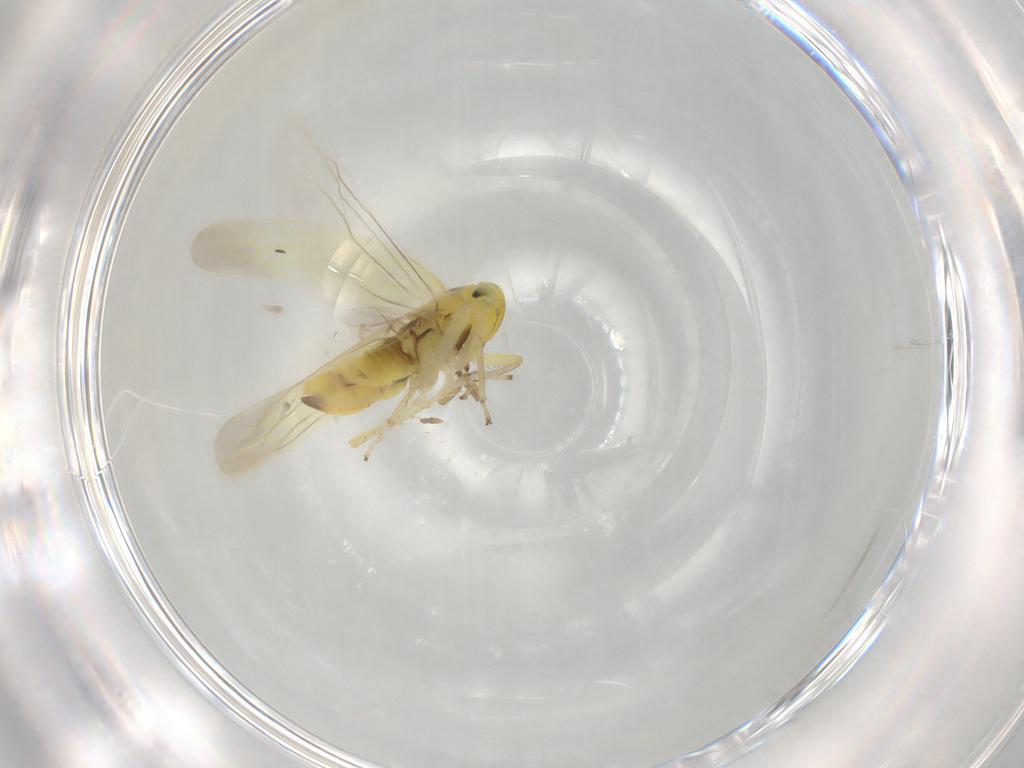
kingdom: Animalia
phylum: Arthropoda
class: Insecta
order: Hemiptera
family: Cicadellidae
